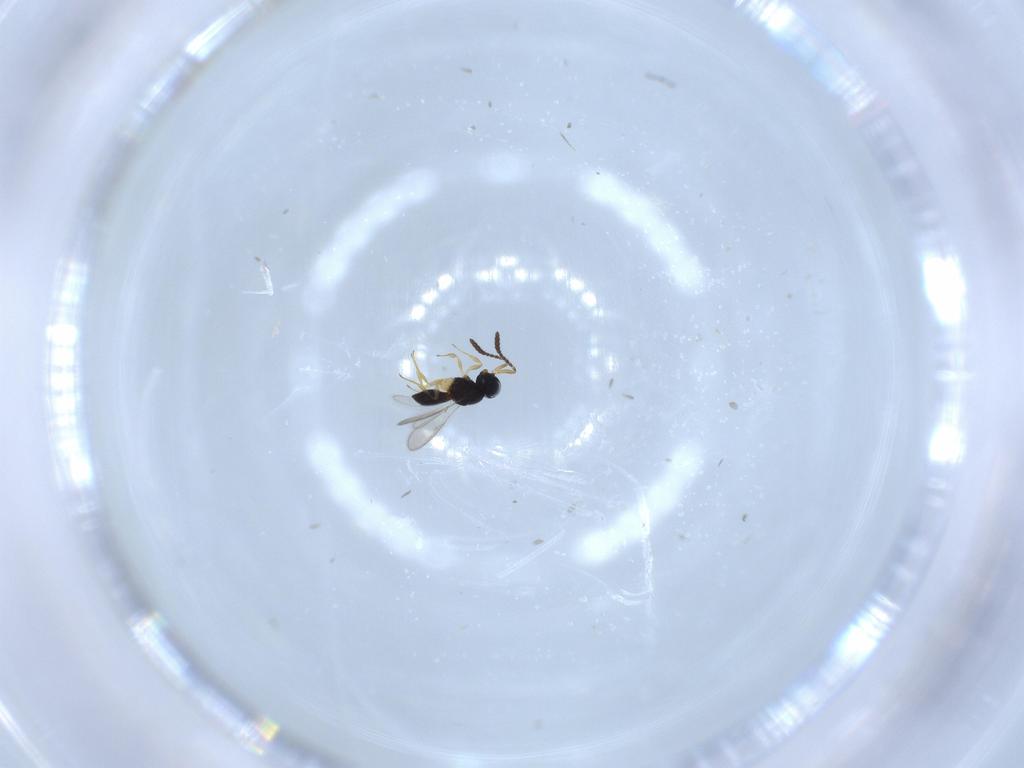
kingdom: Animalia
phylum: Arthropoda
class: Insecta
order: Hymenoptera
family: Scelionidae
